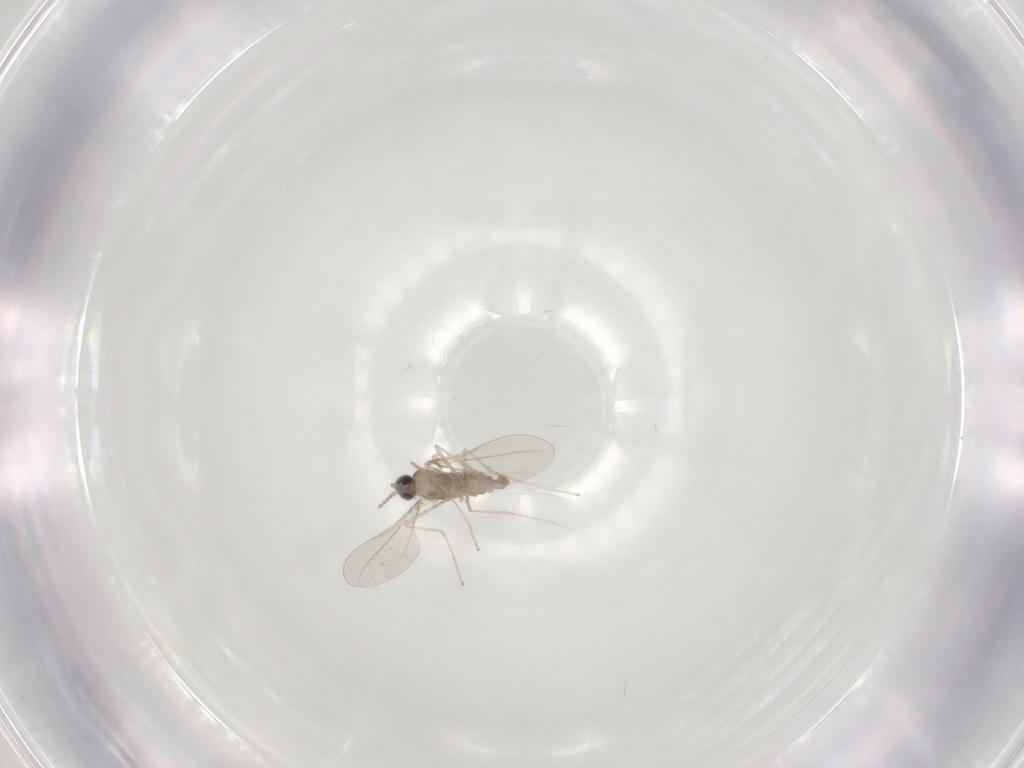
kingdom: Animalia
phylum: Arthropoda
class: Insecta
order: Diptera
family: Cecidomyiidae
